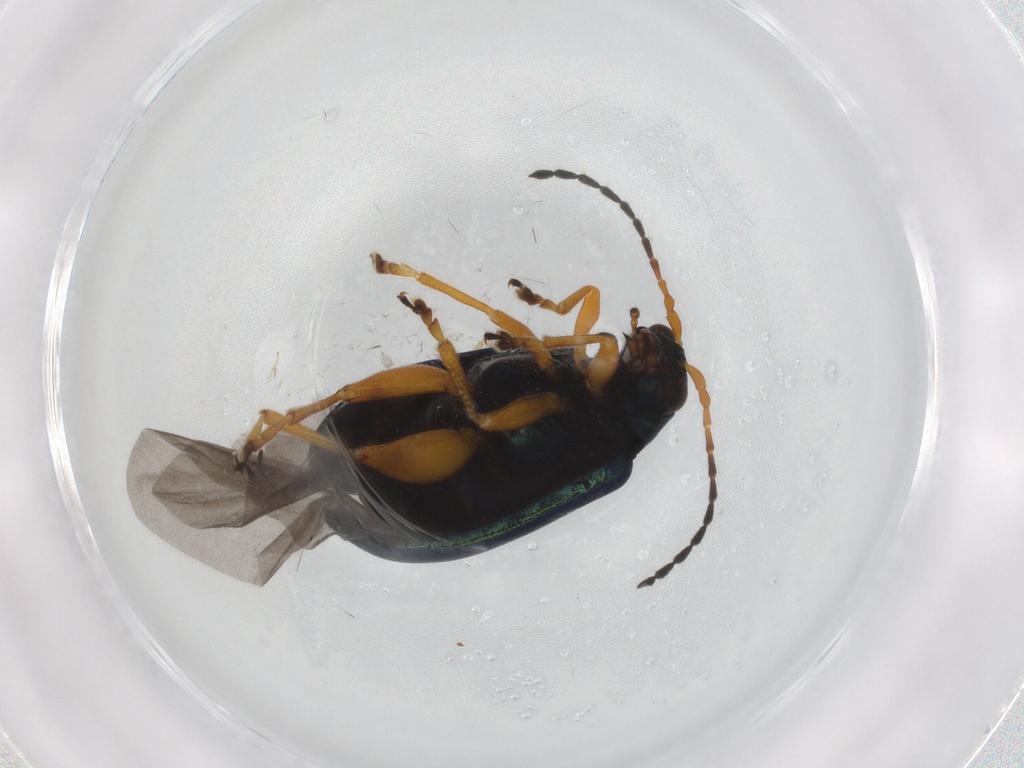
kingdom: Animalia
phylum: Arthropoda
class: Insecta
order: Coleoptera
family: Chrysomelidae
